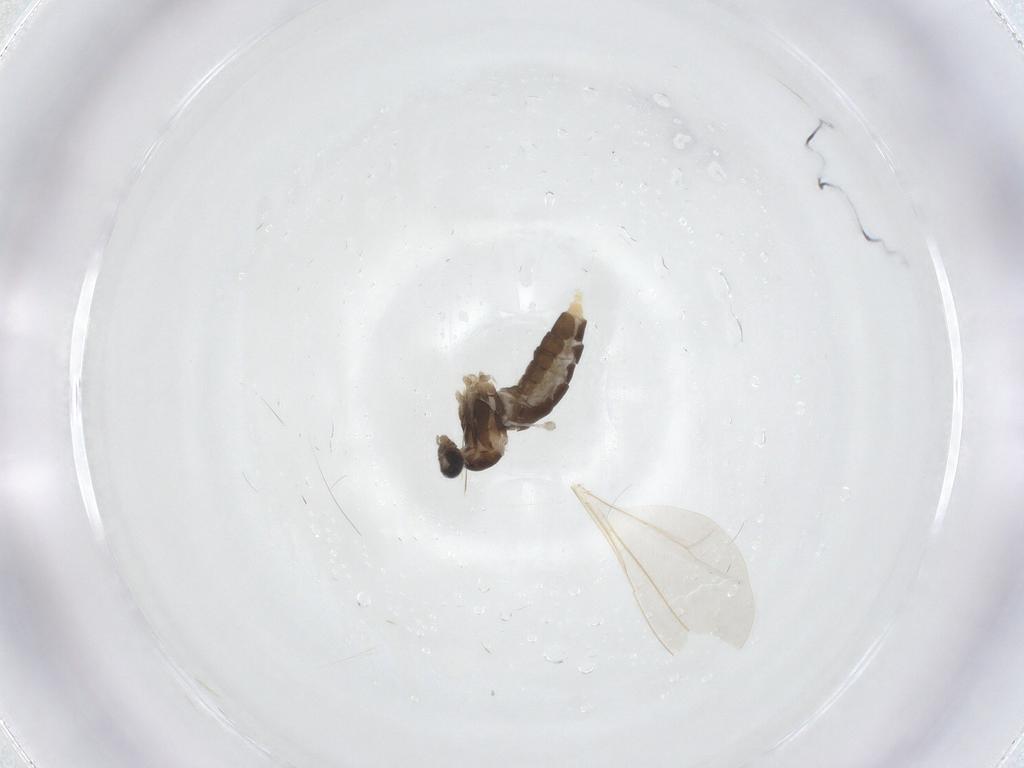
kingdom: Animalia
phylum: Arthropoda
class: Insecta
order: Diptera
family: Cecidomyiidae
